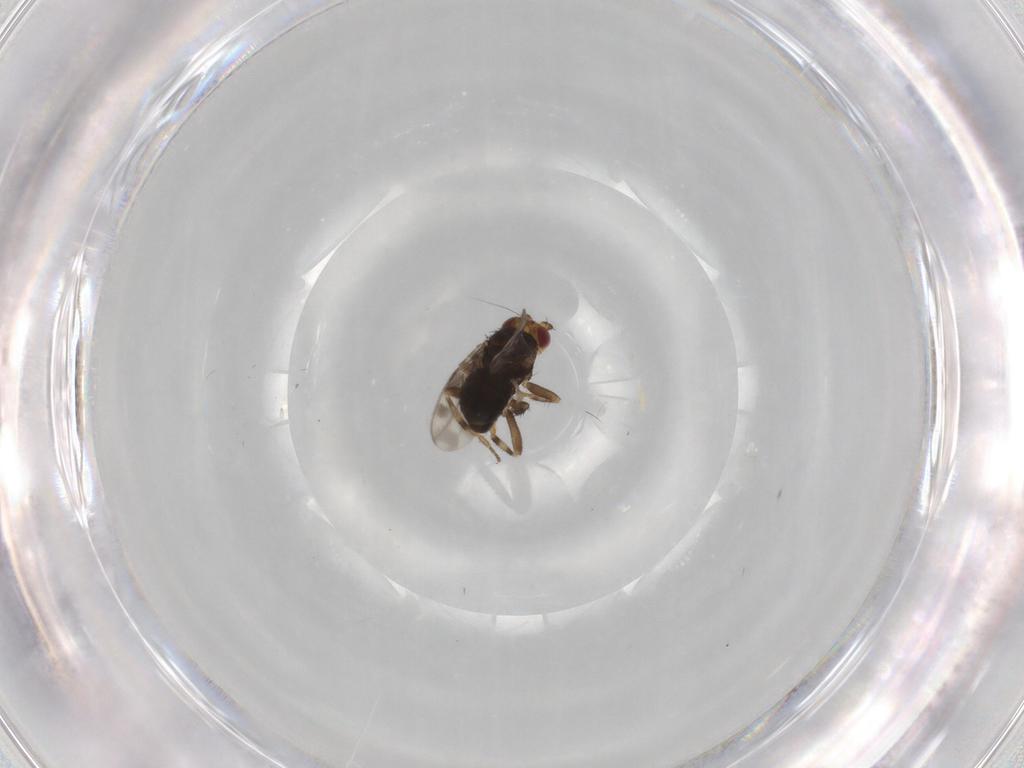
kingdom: Animalia
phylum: Arthropoda
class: Insecta
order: Diptera
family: Sphaeroceridae
